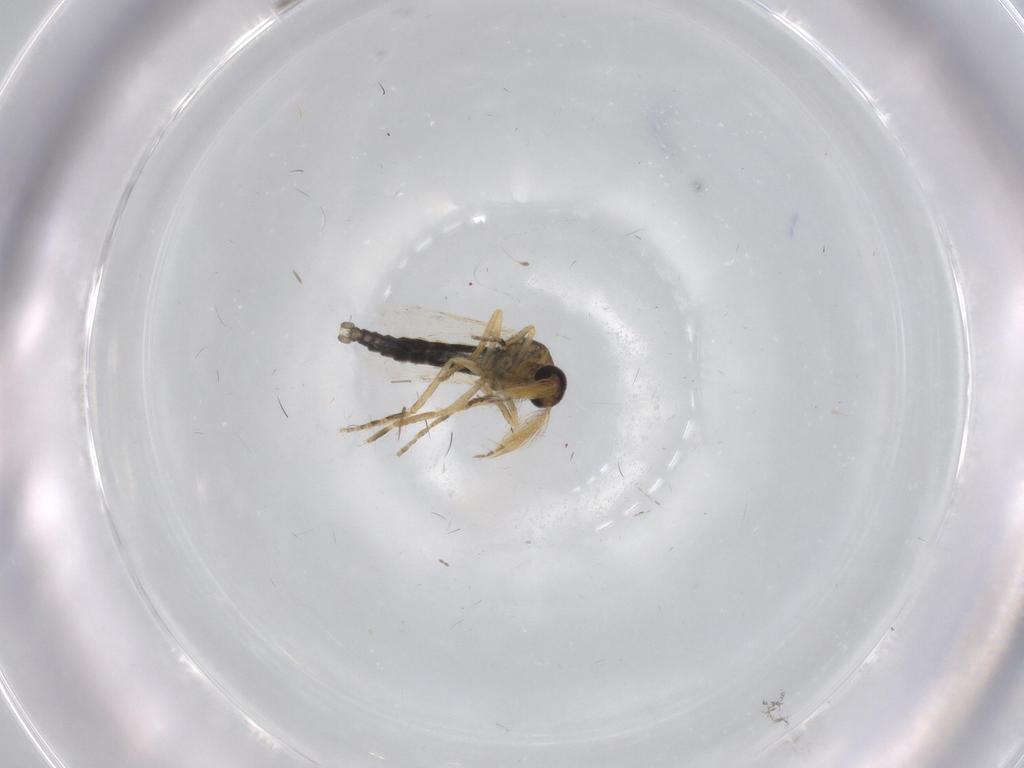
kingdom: Animalia
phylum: Arthropoda
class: Insecta
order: Diptera
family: Ceratopogonidae
